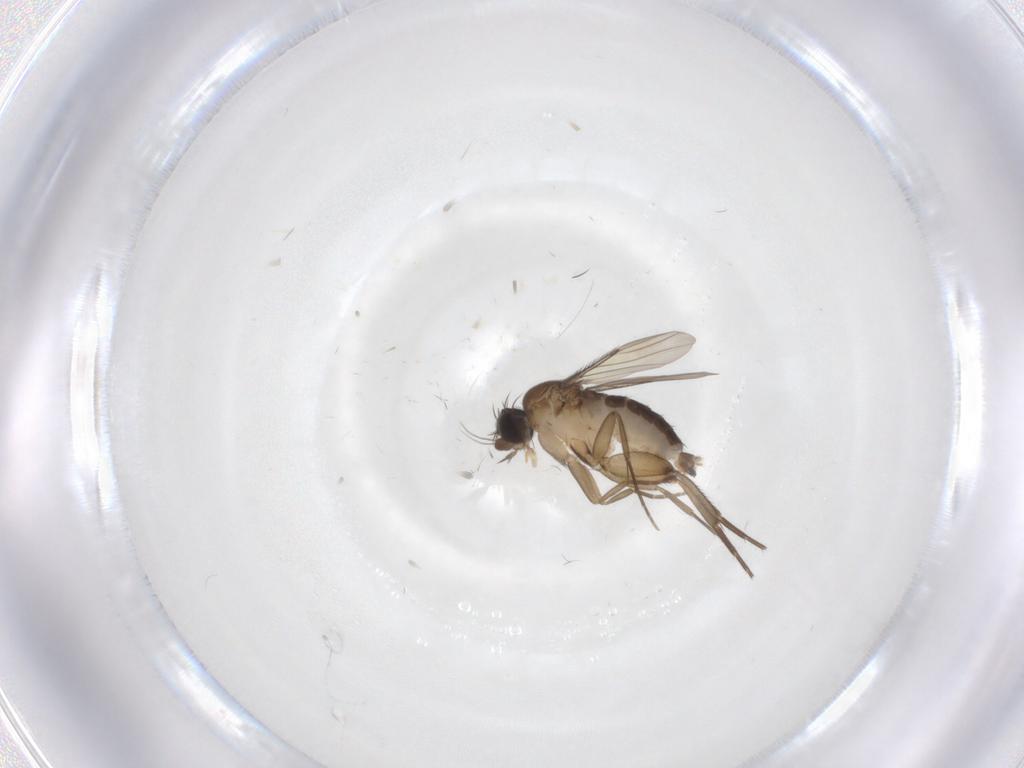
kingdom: Animalia
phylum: Arthropoda
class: Insecta
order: Diptera
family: Phoridae
